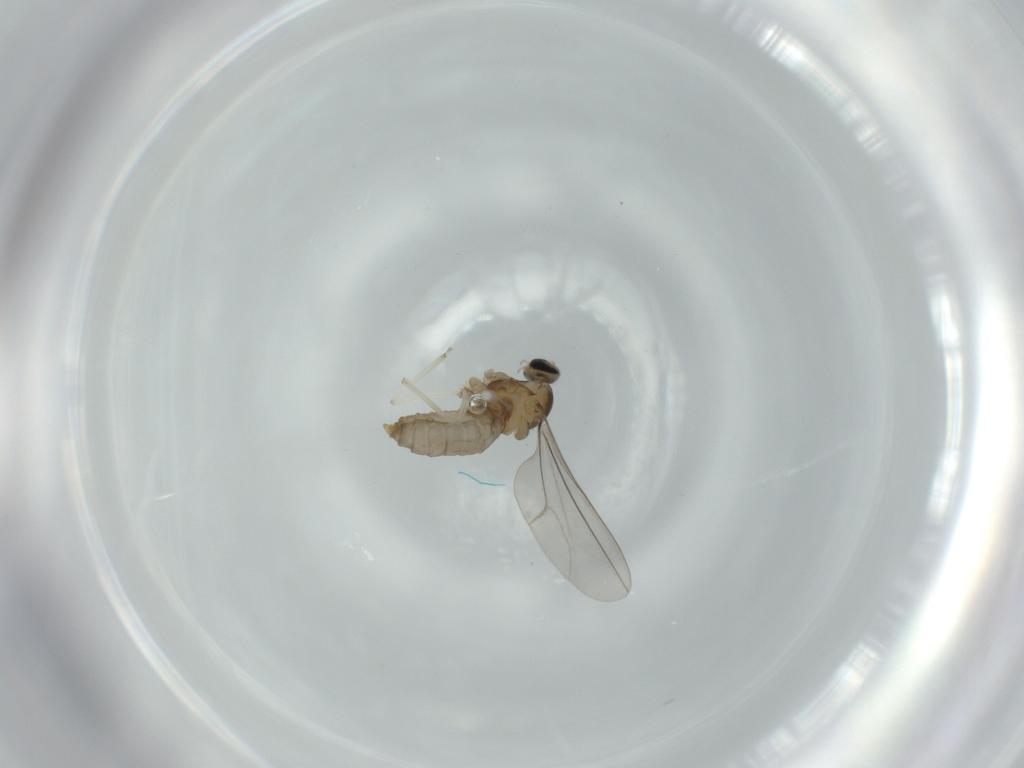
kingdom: Animalia
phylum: Arthropoda
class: Insecta
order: Diptera
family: Cecidomyiidae
